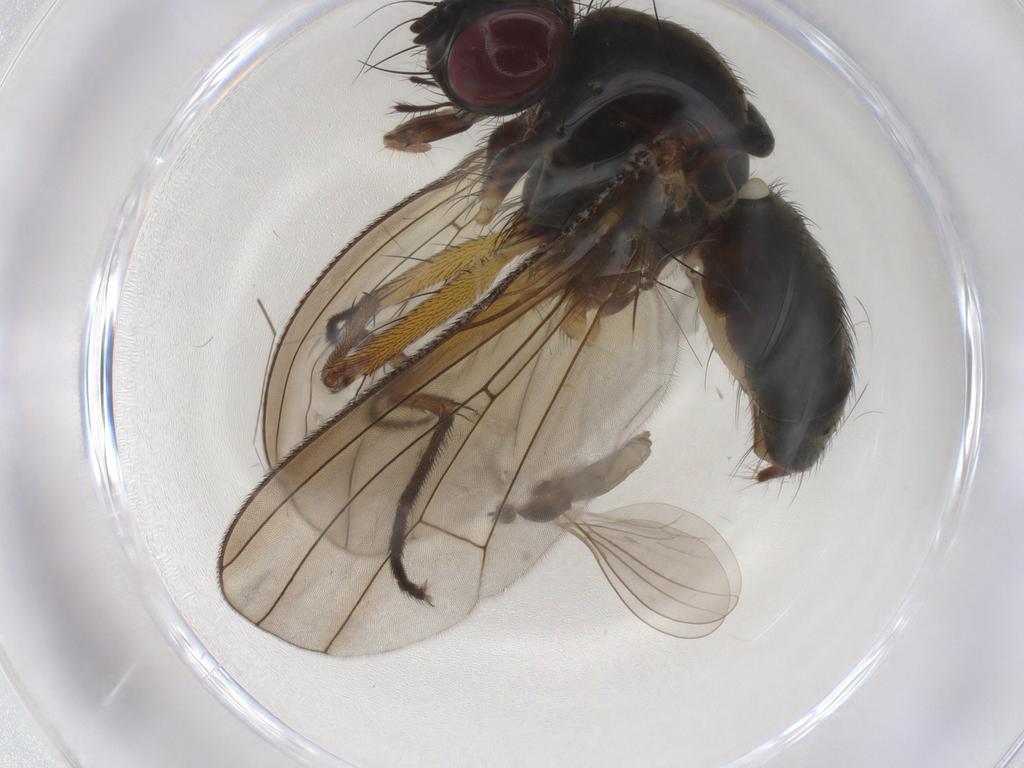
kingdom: Animalia
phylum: Arthropoda
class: Insecta
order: Diptera
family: Muscidae
